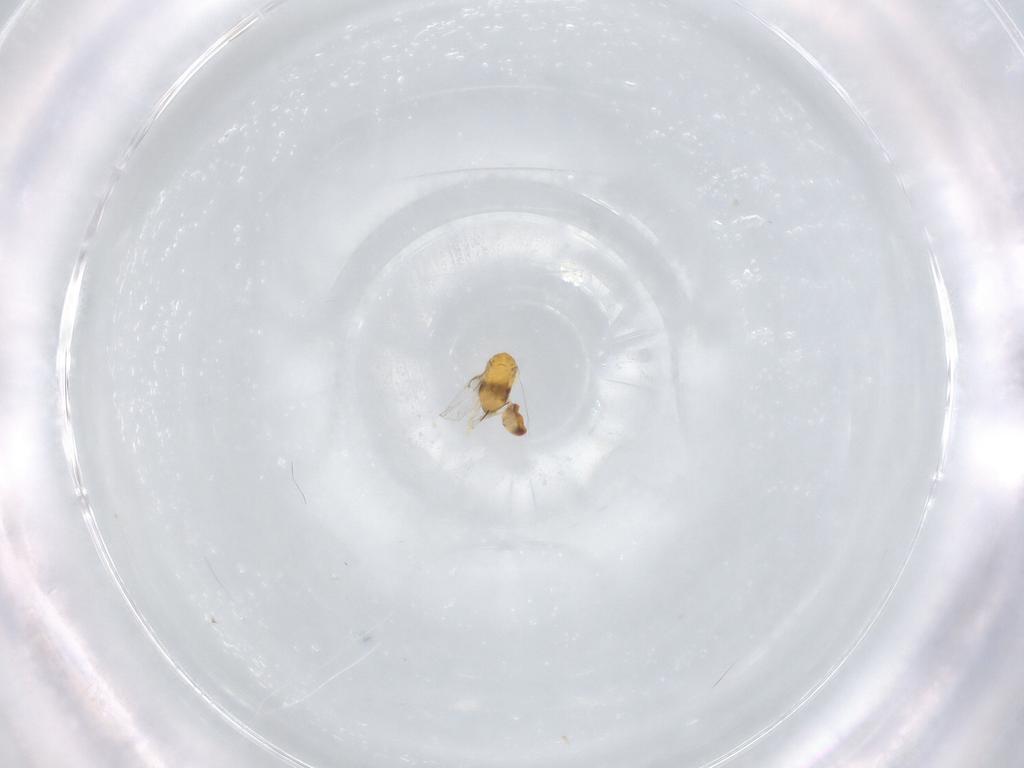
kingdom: Animalia
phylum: Arthropoda
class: Insecta
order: Hymenoptera
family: Trichogrammatidae
